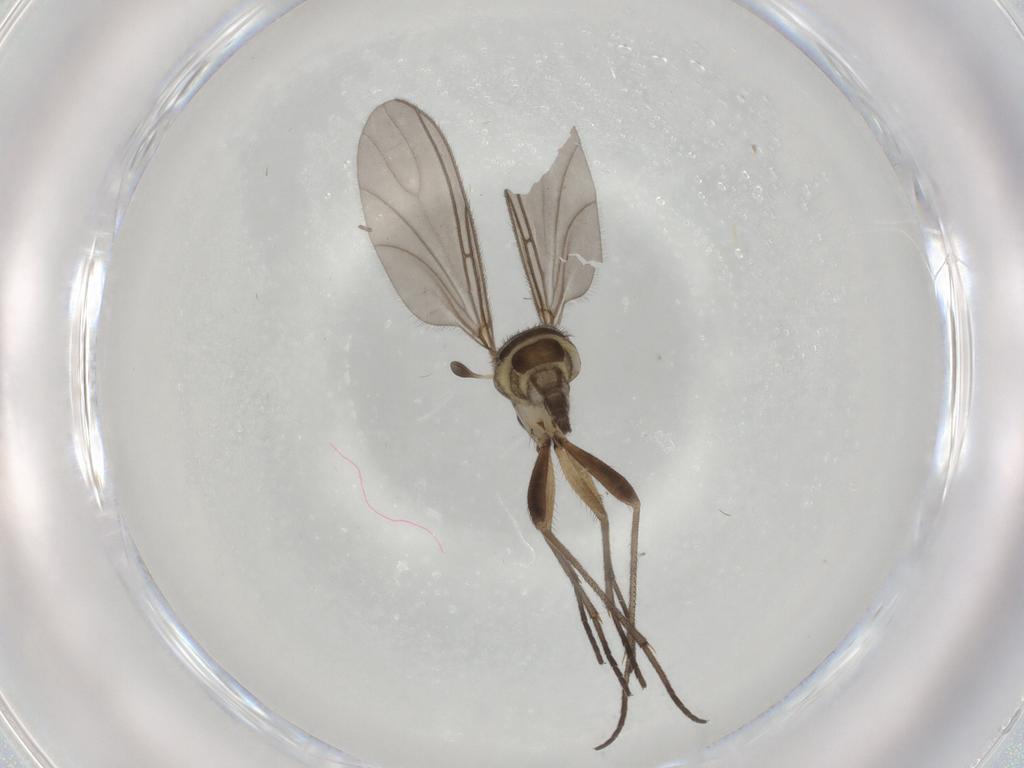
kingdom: Animalia
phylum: Arthropoda
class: Insecta
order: Diptera
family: Sciaridae
